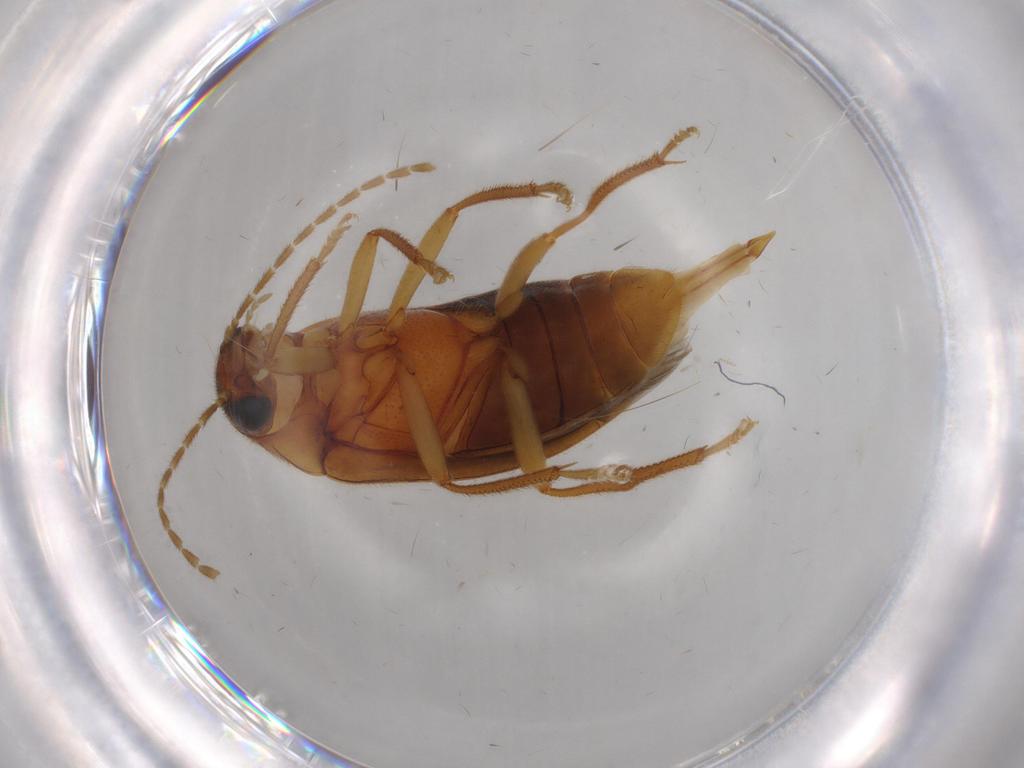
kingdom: Animalia
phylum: Arthropoda
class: Insecta
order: Coleoptera
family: Ptilodactylidae
